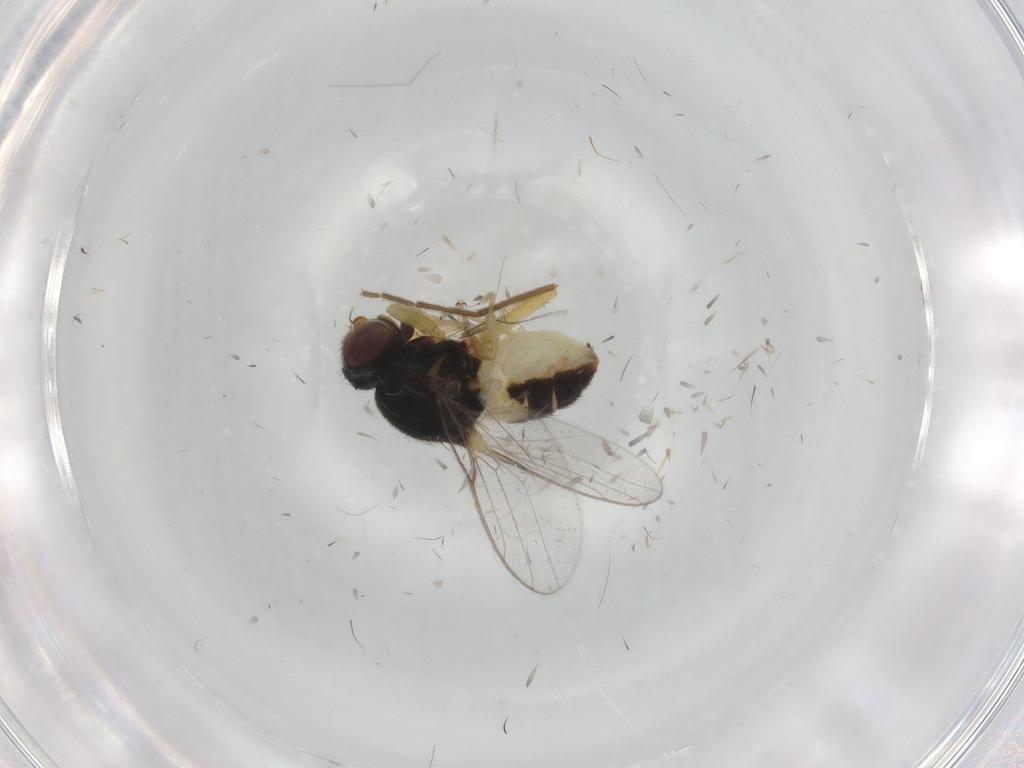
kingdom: Animalia
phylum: Arthropoda
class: Insecta
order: Diptera
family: Chloropidae
